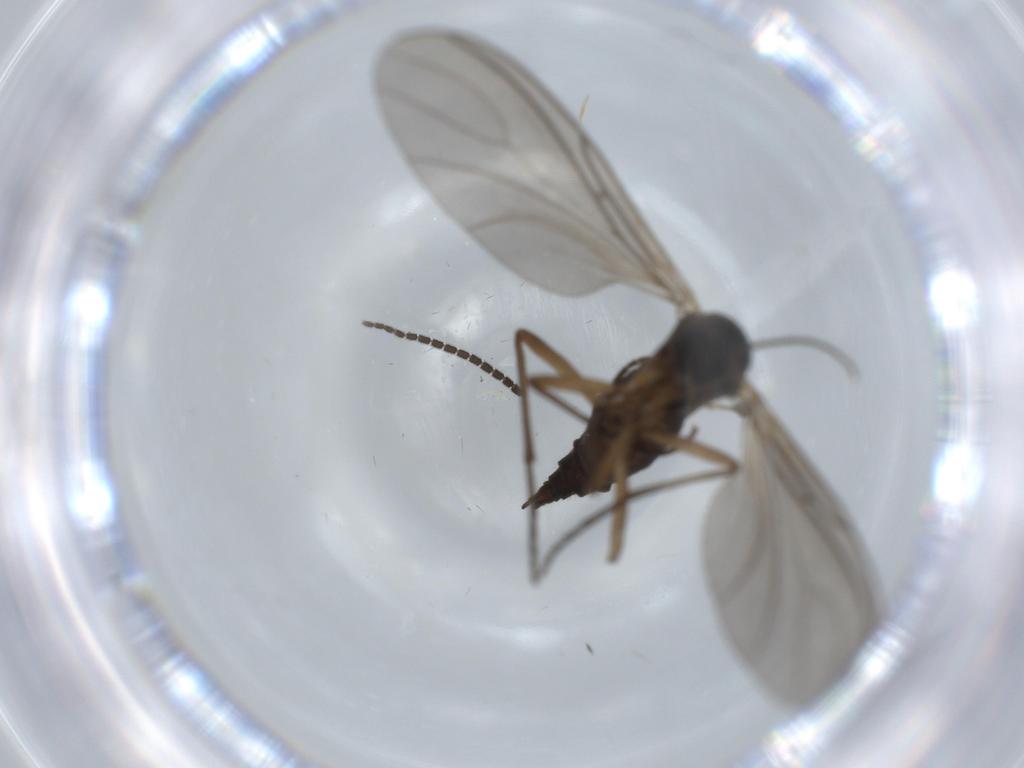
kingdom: Animalia
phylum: Arthropoda
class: Insecta
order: Diptera
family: Sciaridae
